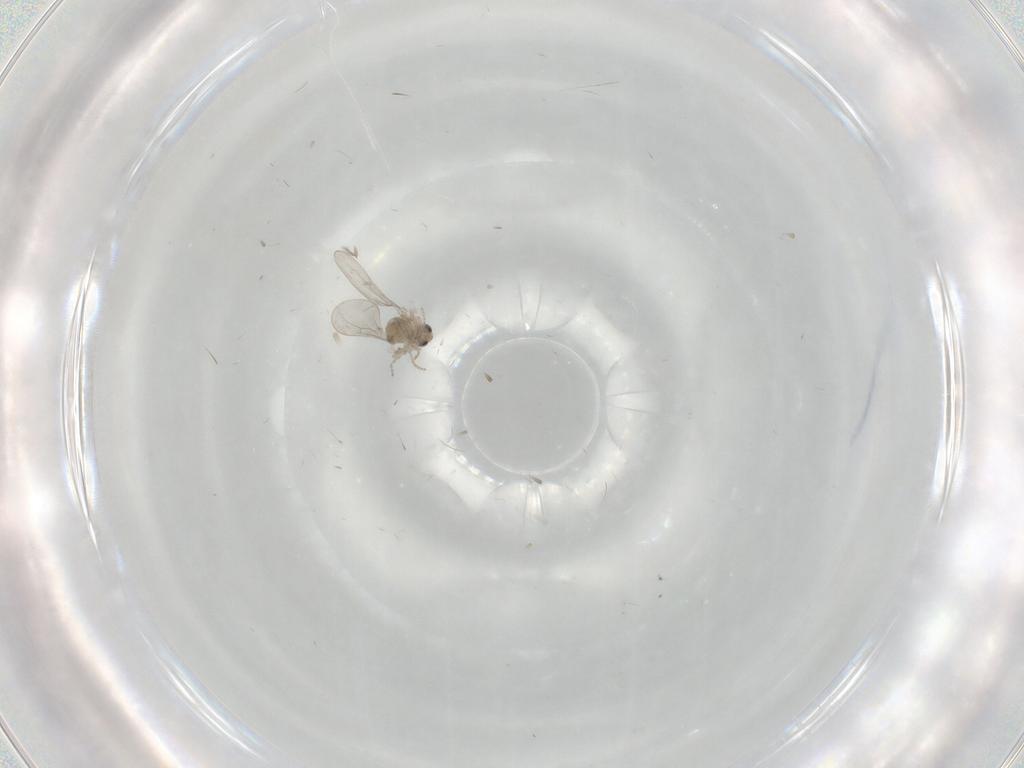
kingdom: Animalia
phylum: Arthropoda
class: Insecta
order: Diptera
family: Cecidomyiidae
